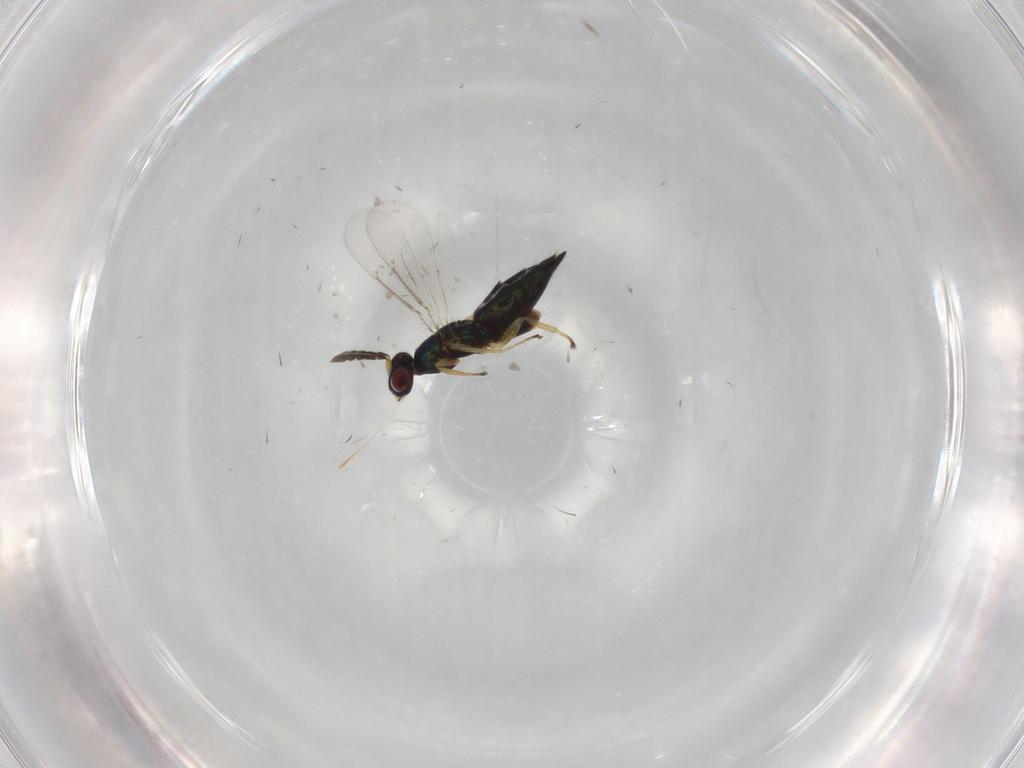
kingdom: Animalia
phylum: Arthropoda
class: Insecta
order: Hymenoptera
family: Eulophidae
